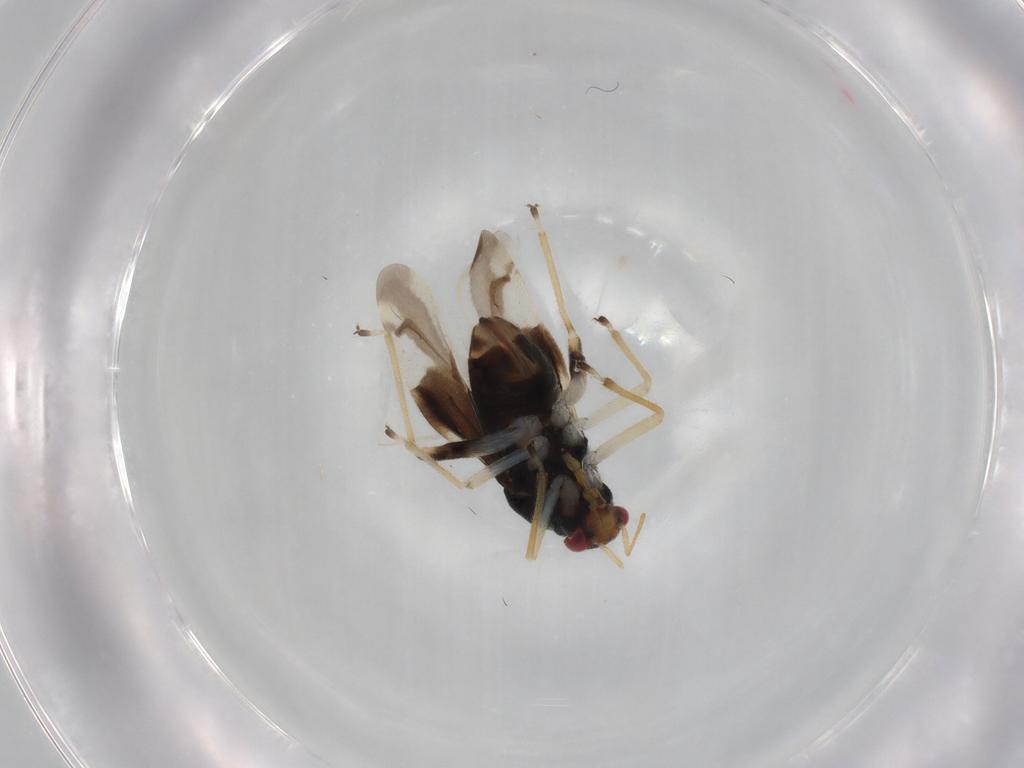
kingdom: Animalia
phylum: Arthropoda
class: Insecta
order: Hemiptera
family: Miridae
